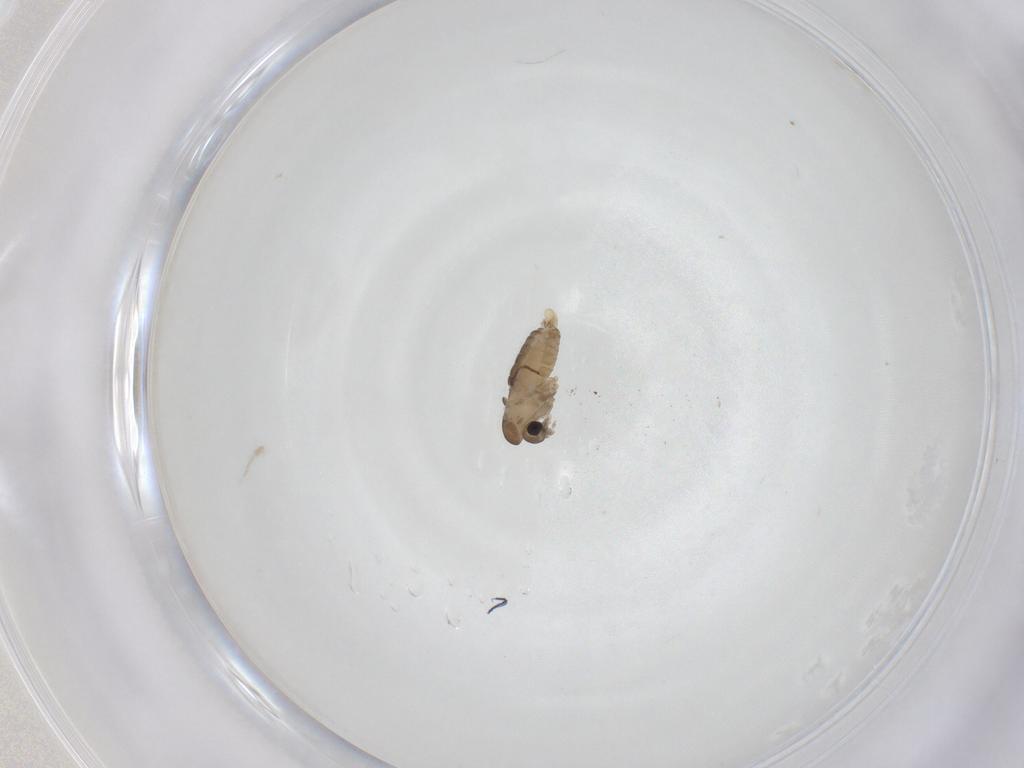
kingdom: Animalia
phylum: Arthropoda
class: Insecta
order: Diptera
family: Psychodidae
